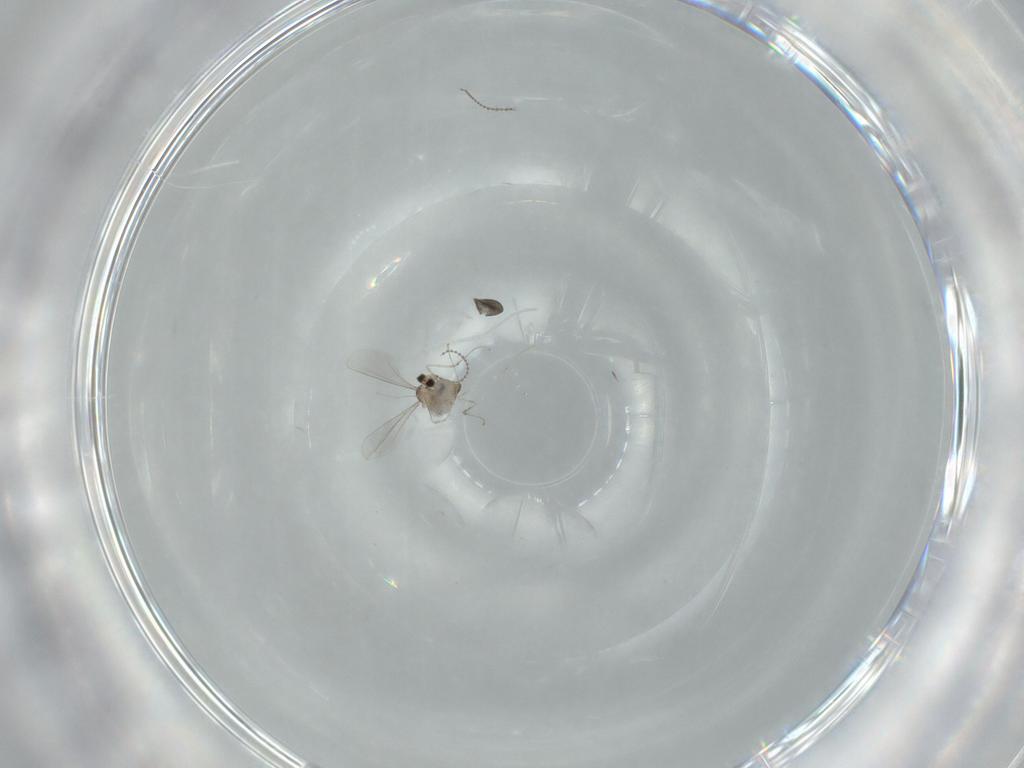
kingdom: Animalia
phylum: Arthropoda
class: Insecta
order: Diptera
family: Cecidomyiidae
